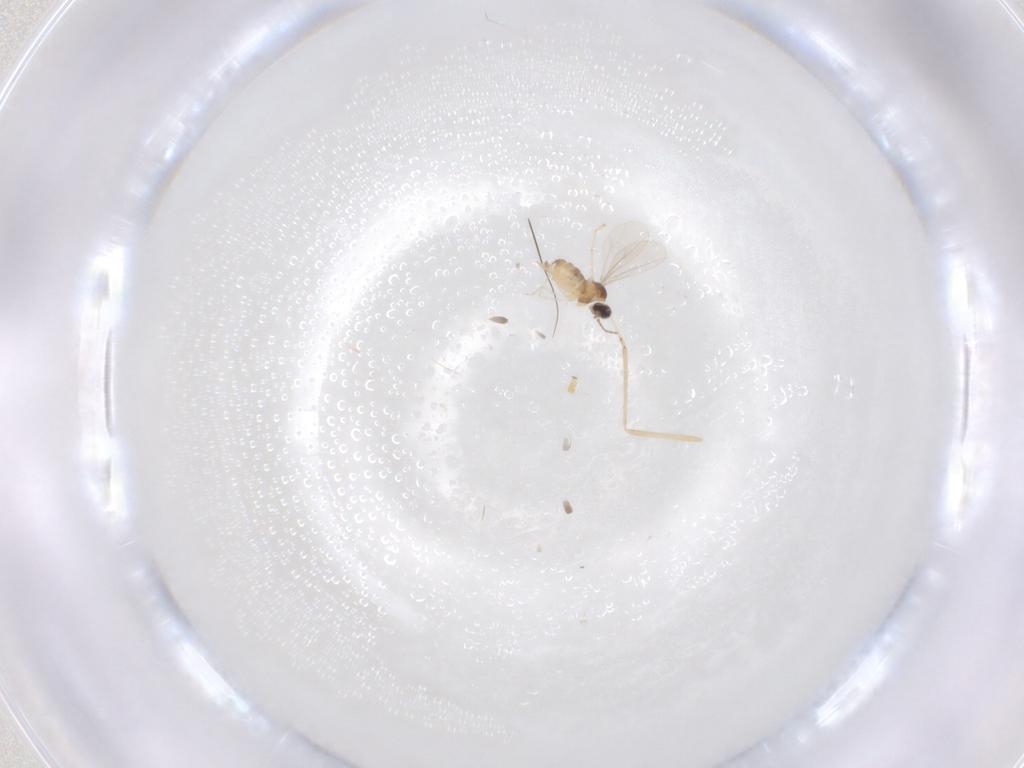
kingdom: Animalia
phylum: Arthropoda
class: Insecta
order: Diptera
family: Cecidomyiidae
